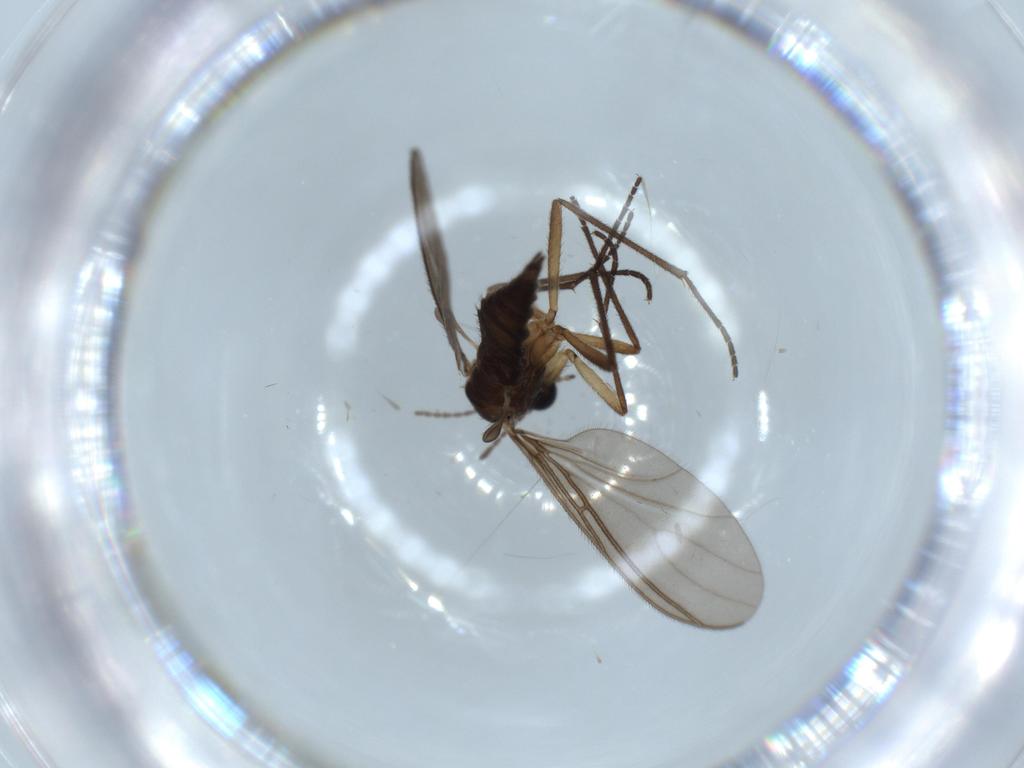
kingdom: Animalia
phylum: Arthropoda
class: Insecta
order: Diptera
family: Sciaridae
